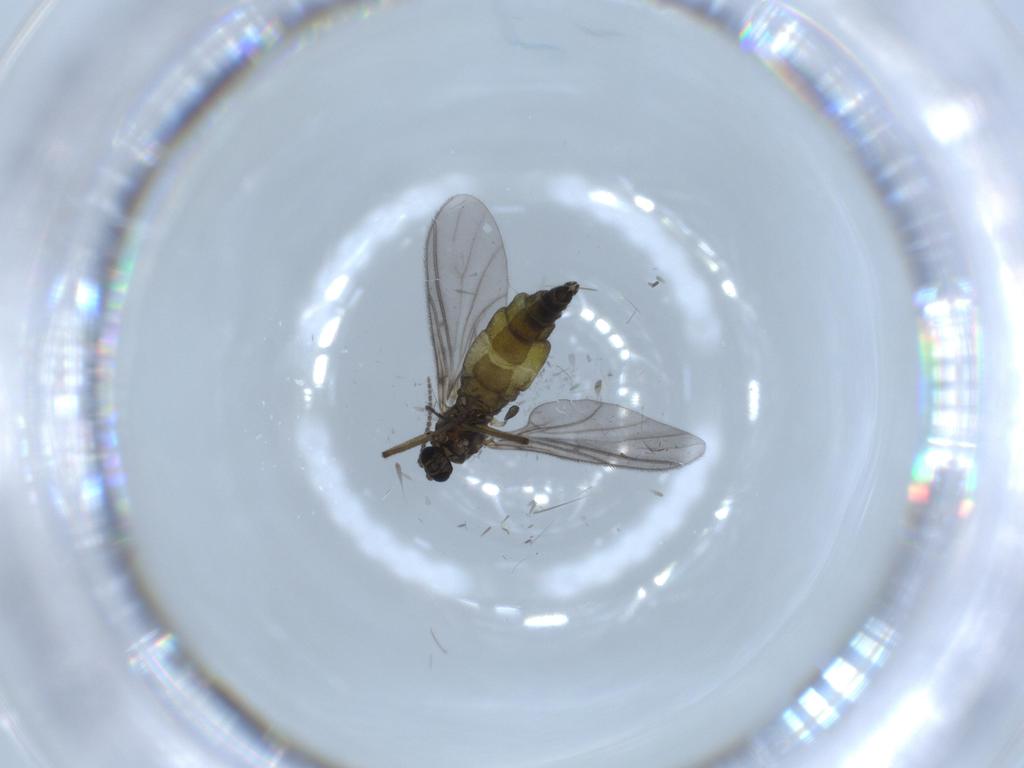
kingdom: Animalia
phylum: Arthropoda
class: Insecta
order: Diptera
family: Sciaridae
